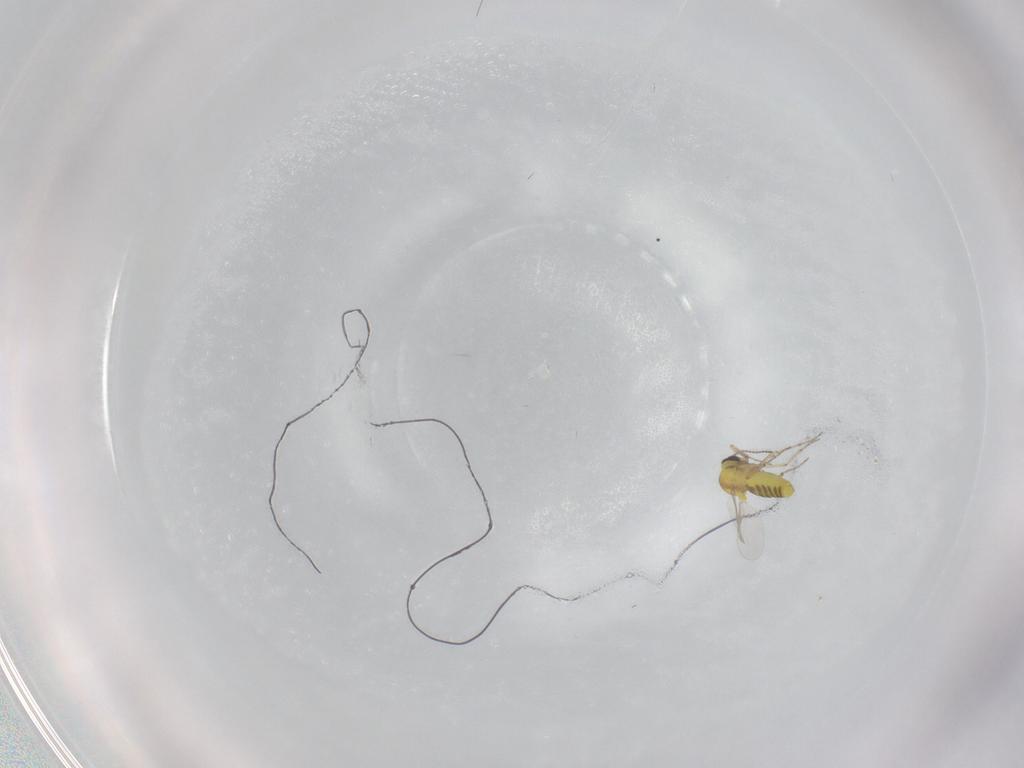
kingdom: Animalia
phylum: Arthropoda
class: Insecta
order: Diptera
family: Ceratopogonidae
